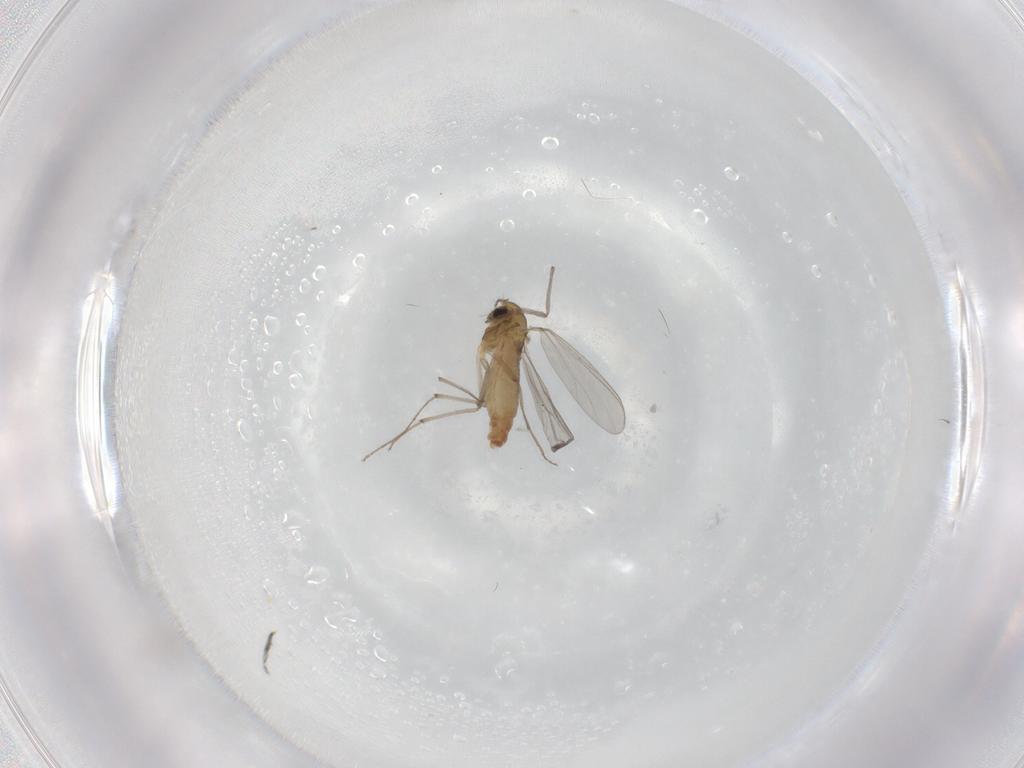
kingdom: Animalia
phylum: Arthropoda
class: Insecta
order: Diptera
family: Chironomidae
